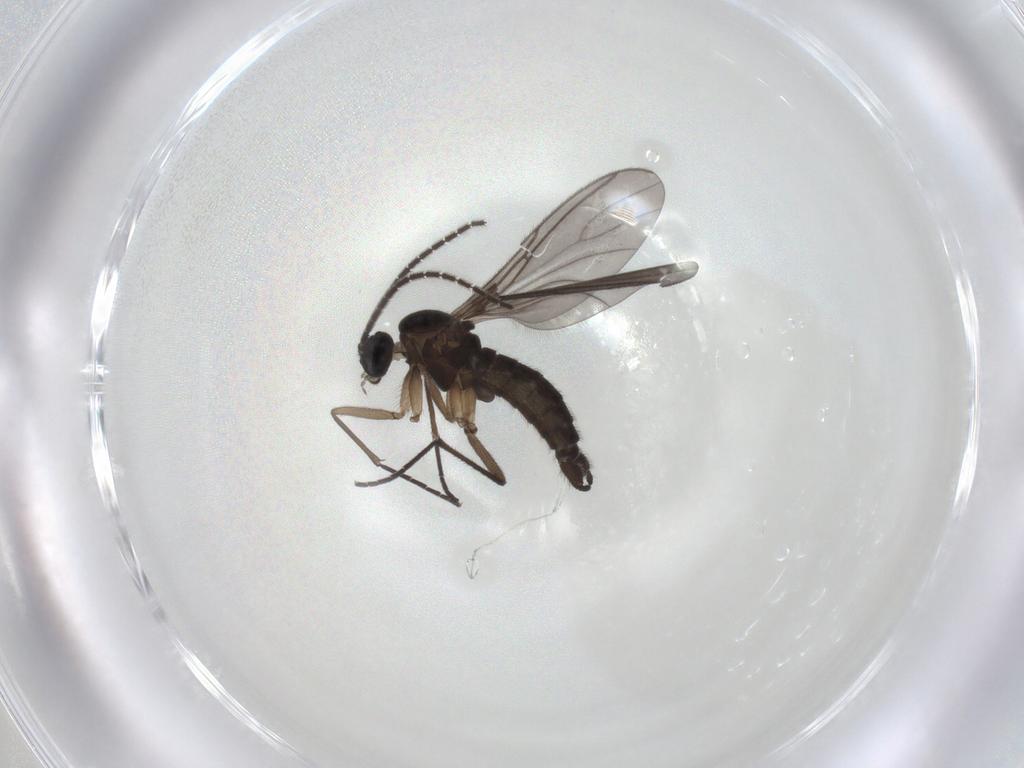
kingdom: Animalia
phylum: Arthropoda
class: Insecta
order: Diptera
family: Sciaridae
